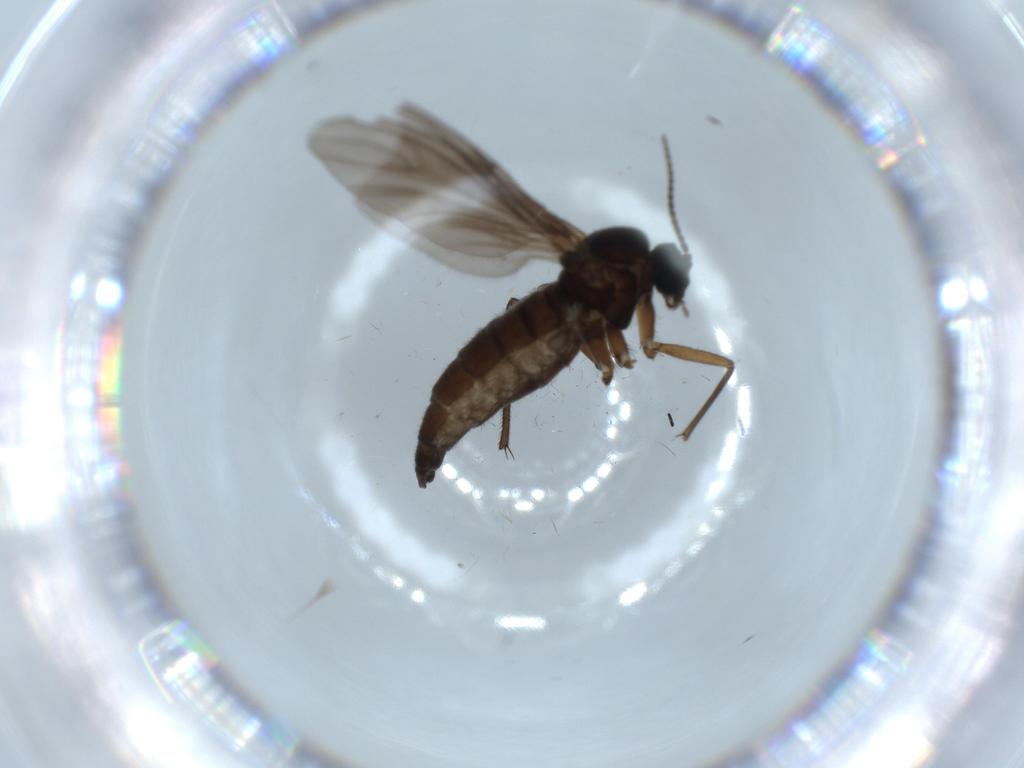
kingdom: Animalia
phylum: Arthropoda
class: Insecta
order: Diptera
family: Sciaridae
